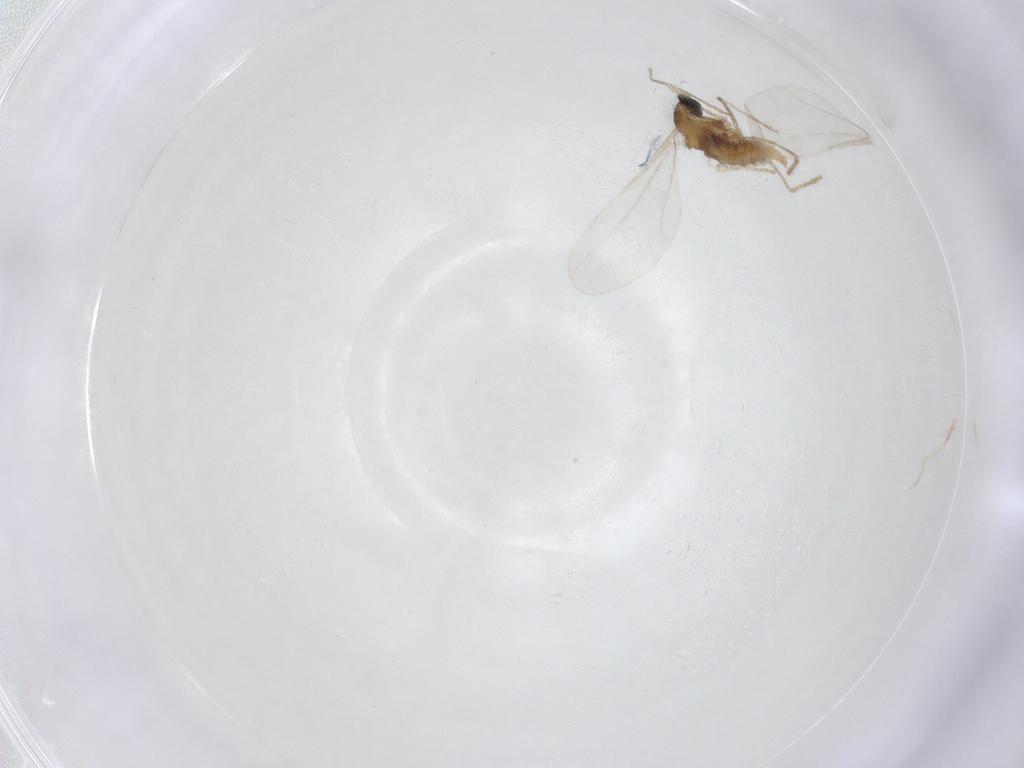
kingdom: Animalia
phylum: Arthropoda
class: Insecta
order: Diptera
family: Cecidomyiidae
